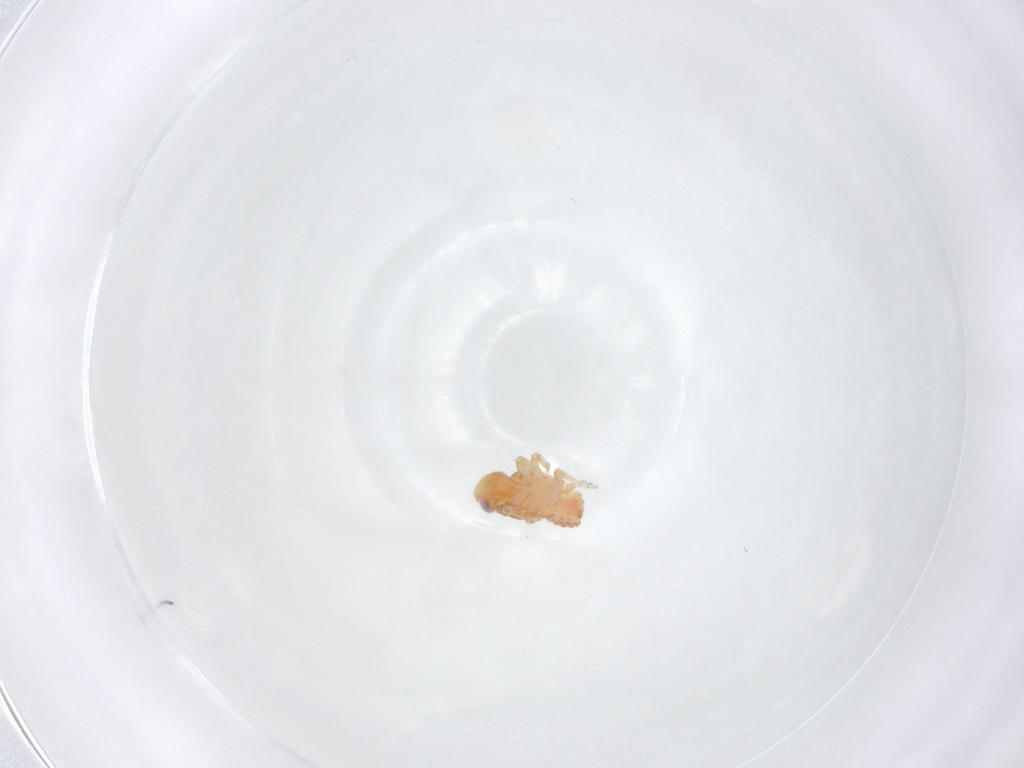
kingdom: Animalia
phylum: Arthropoda
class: Insecta
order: Hemiptera
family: Issidae
